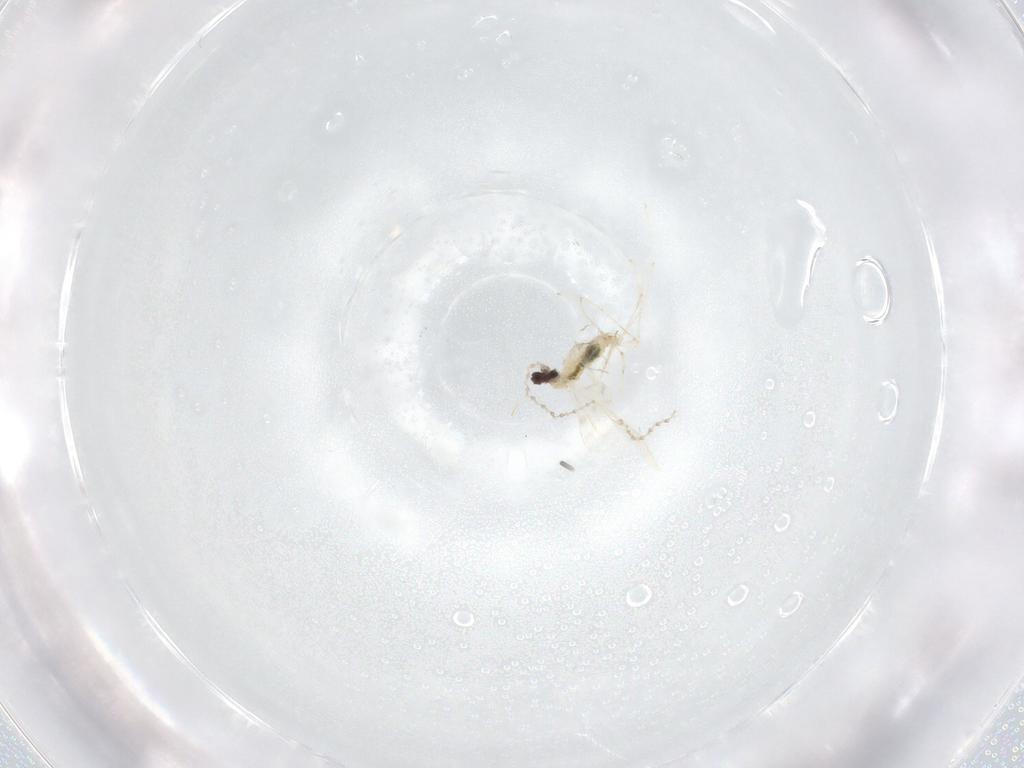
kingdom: Animalia
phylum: Arthropoda
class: Insecta
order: Diptera
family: Cecidomyiidae
